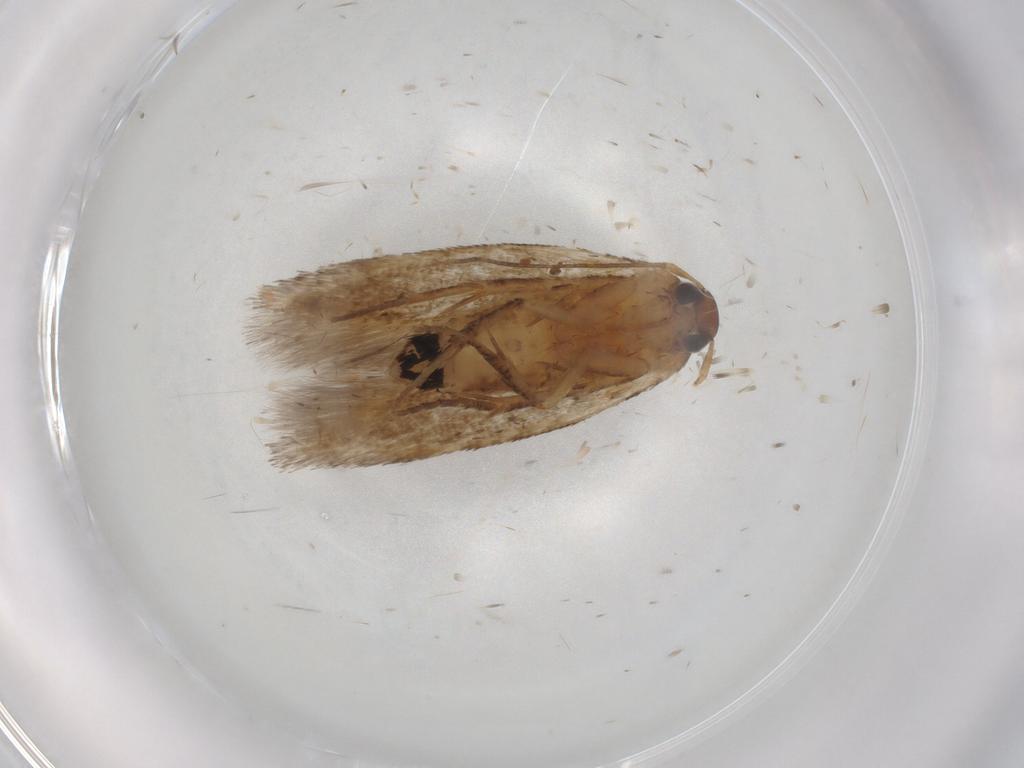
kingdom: Animalia
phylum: Arthropoda
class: Insecta
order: Lepidoptera
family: Cosmopterigidae
